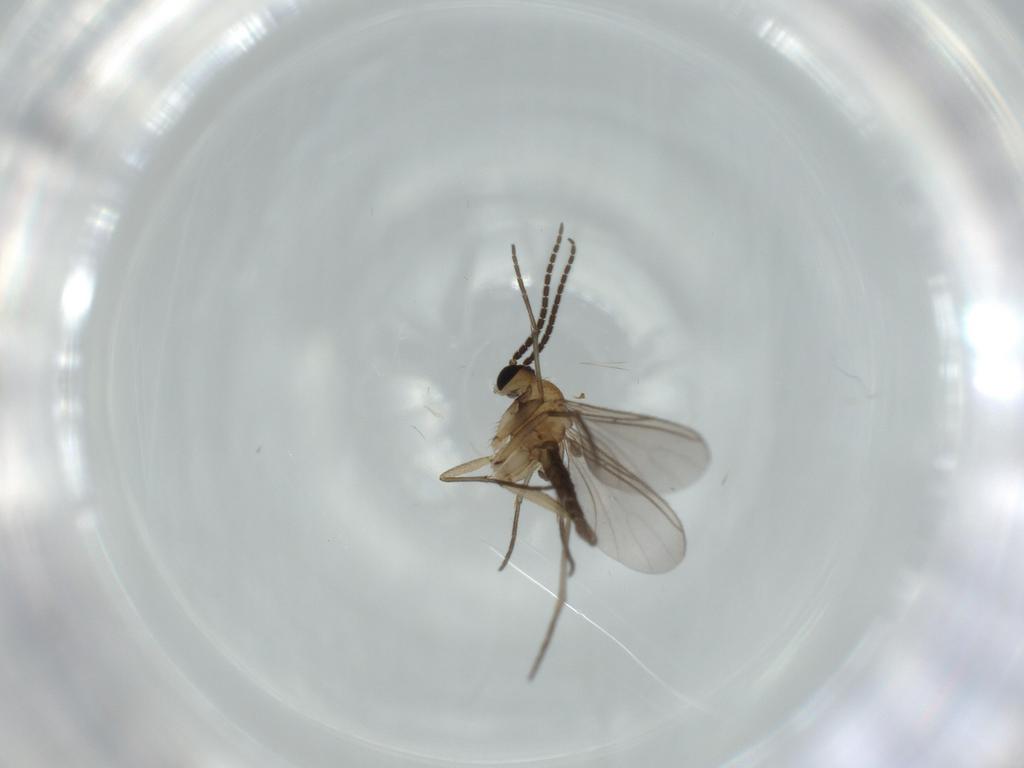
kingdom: Animalia
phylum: Arthropoda
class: Insecta
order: Diptera
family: Sciaridae
